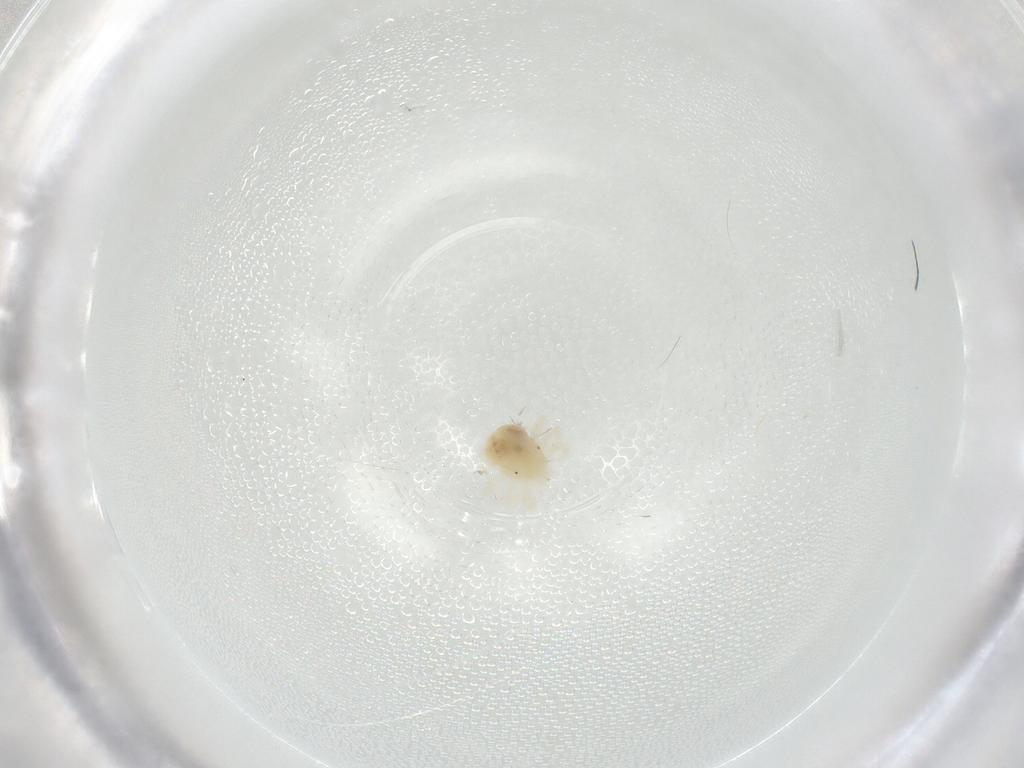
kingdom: Animalia
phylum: Arthropoda
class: Arachnida
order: Trombidiformes
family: Anystidae
